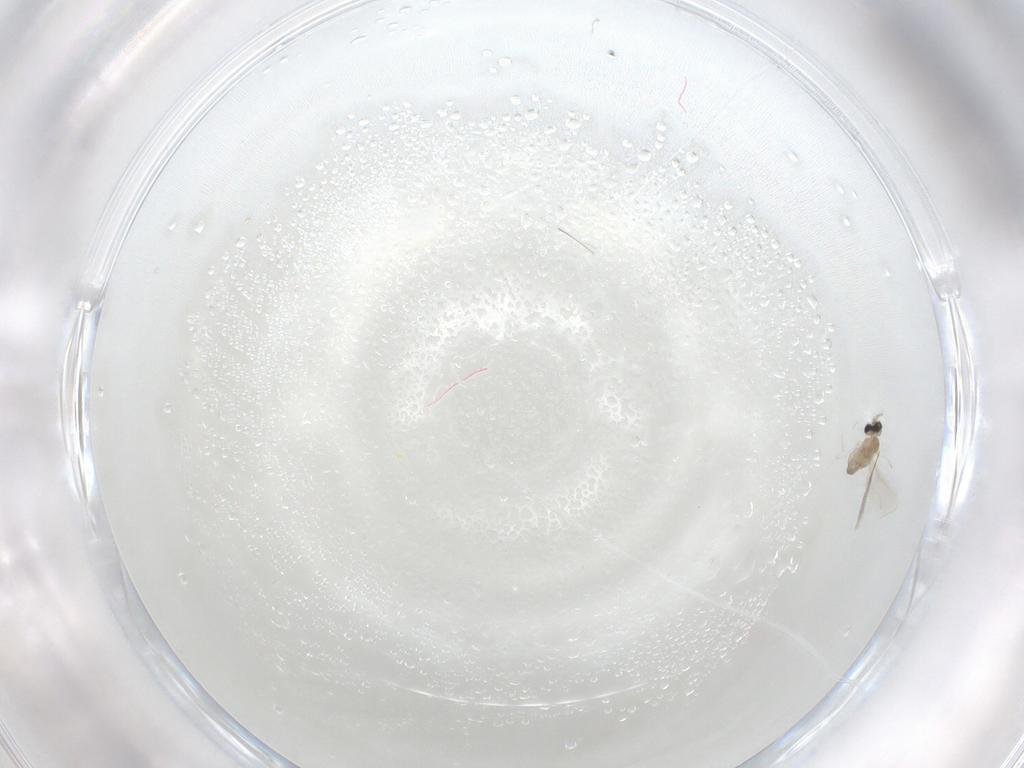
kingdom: Animalia
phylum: Arthropoda
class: Insecta
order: Diptera
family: Cecidomyiidae
